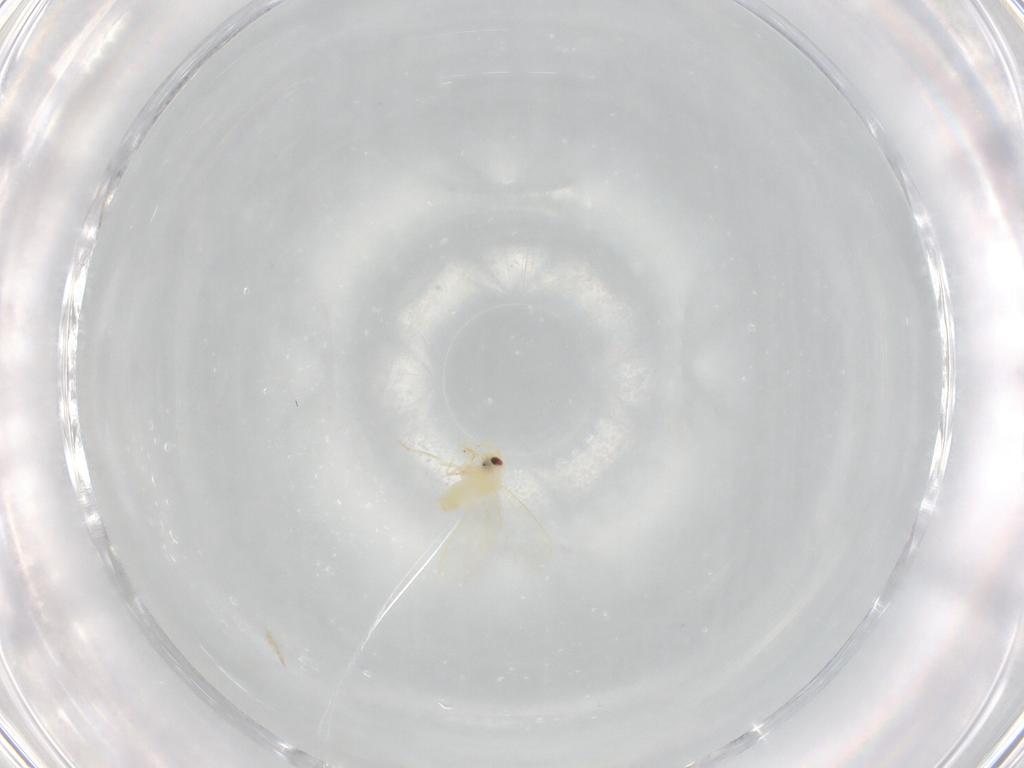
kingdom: Animalia
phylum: Arthropoda
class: Insecta
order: Hemiptera
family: Aleyrodidae
